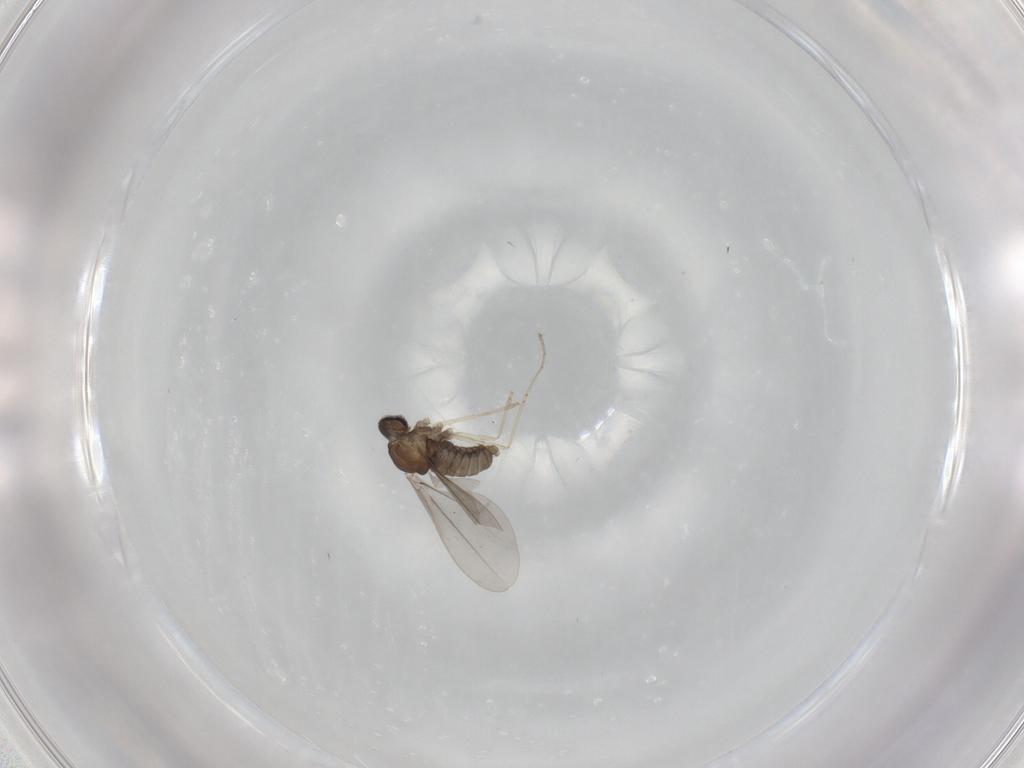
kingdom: Animalia
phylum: Arthropoda
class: Insecta
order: Diptera
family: Cecidomyiidae
